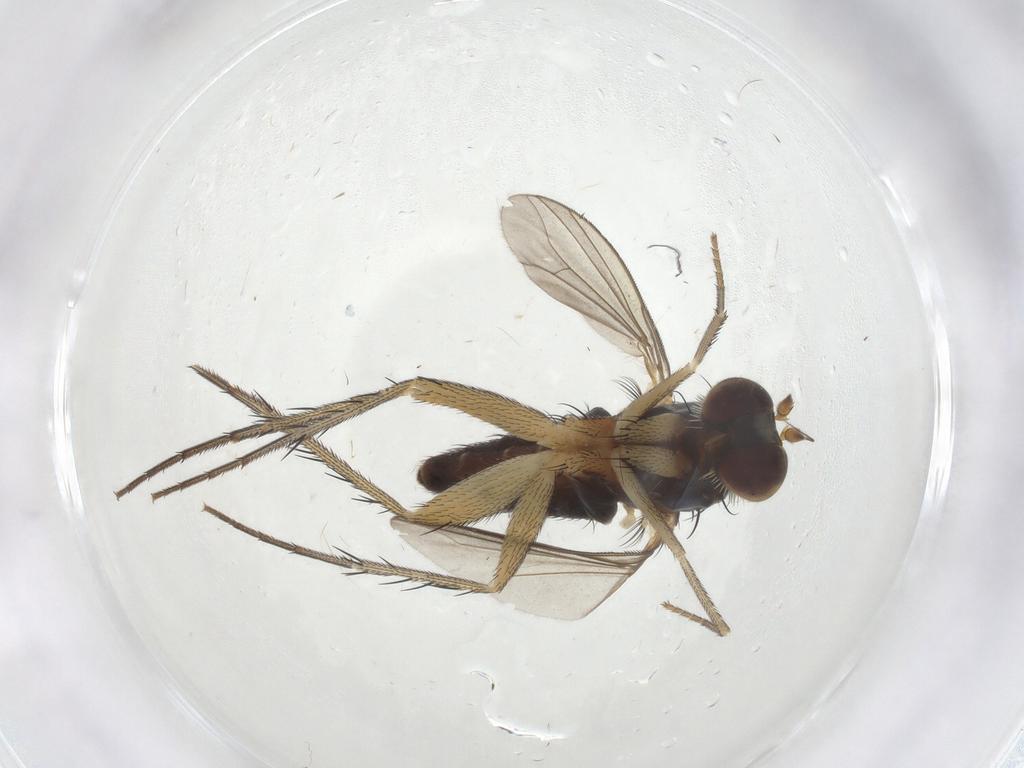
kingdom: Animalia
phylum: Arthropoda
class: Insecta
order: Diptera
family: Dolichopodidae
